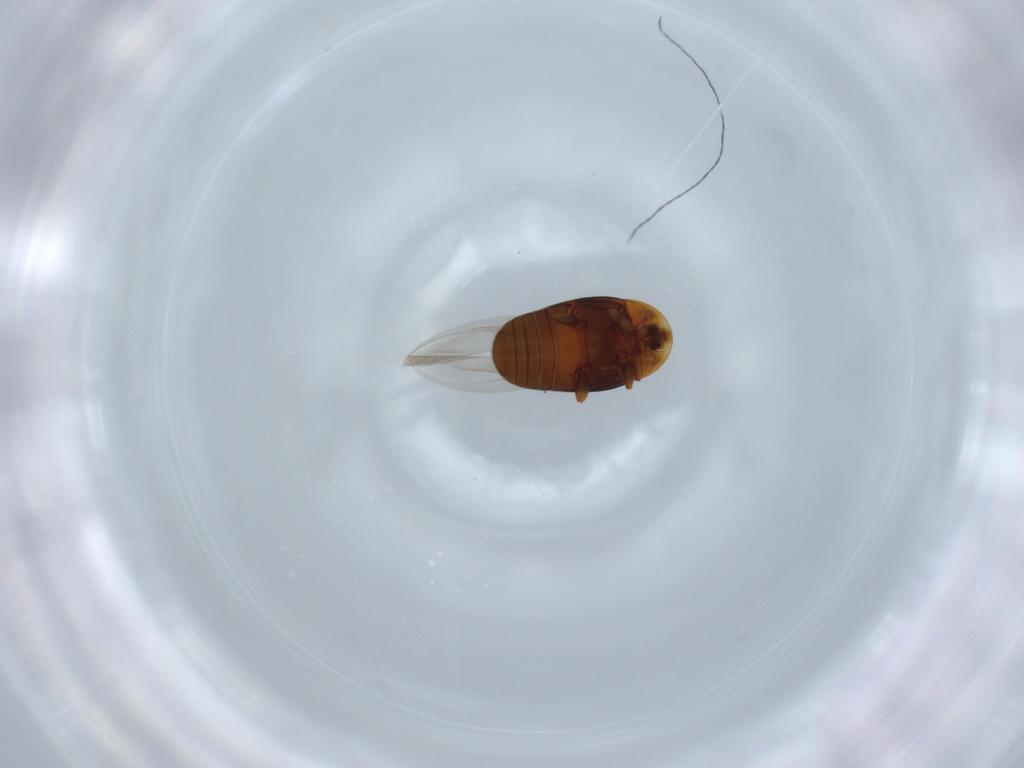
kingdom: Animalia
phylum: Arthropoda
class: Insecta
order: Coleoptera
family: Corylophidae
